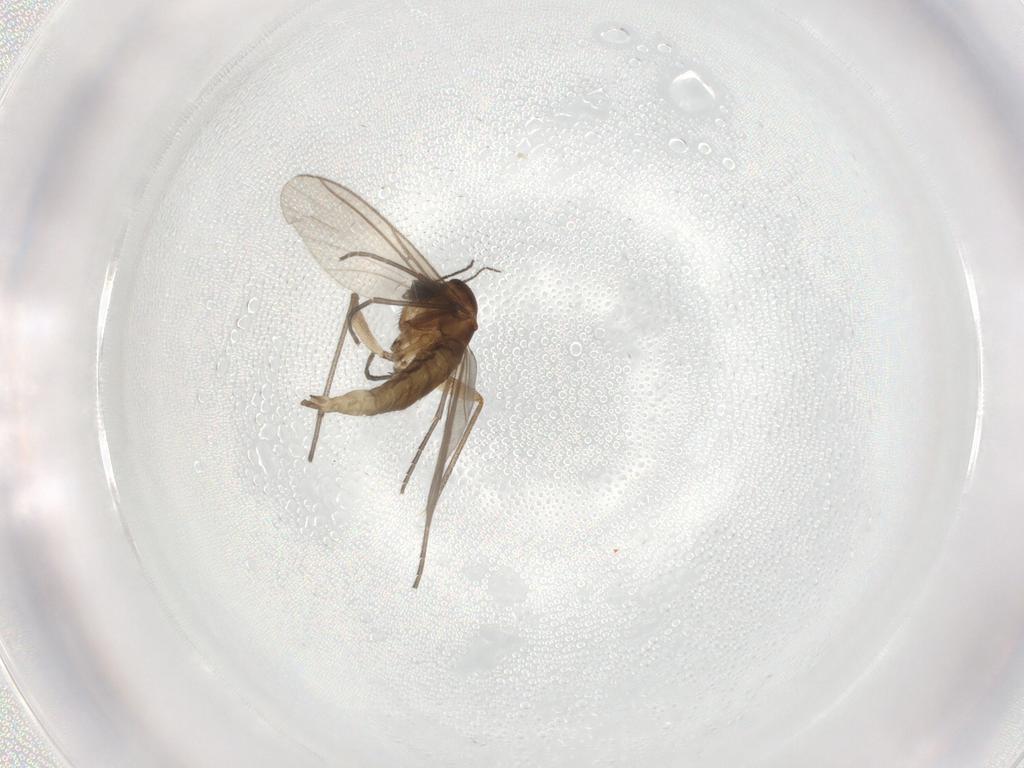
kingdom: Animalia
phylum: Arthropoda
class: Insecta
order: Diptera
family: Sciaridae
